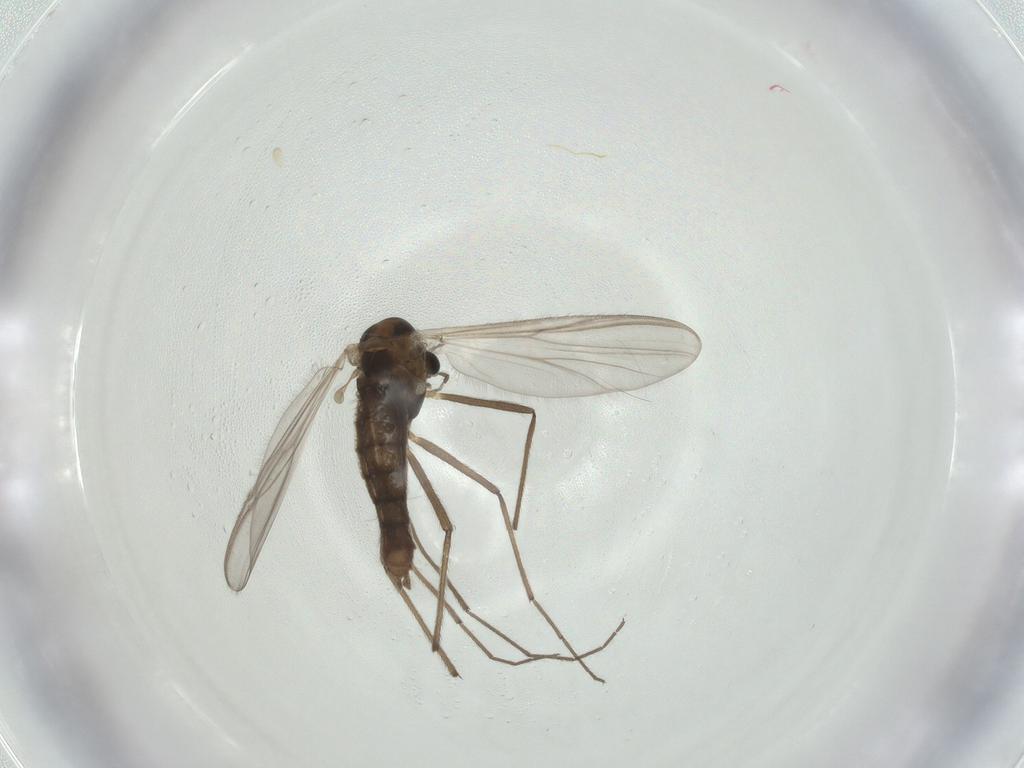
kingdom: Animalia
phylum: Arthropoda
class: Insecta
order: Diptera
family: Chironomidae
